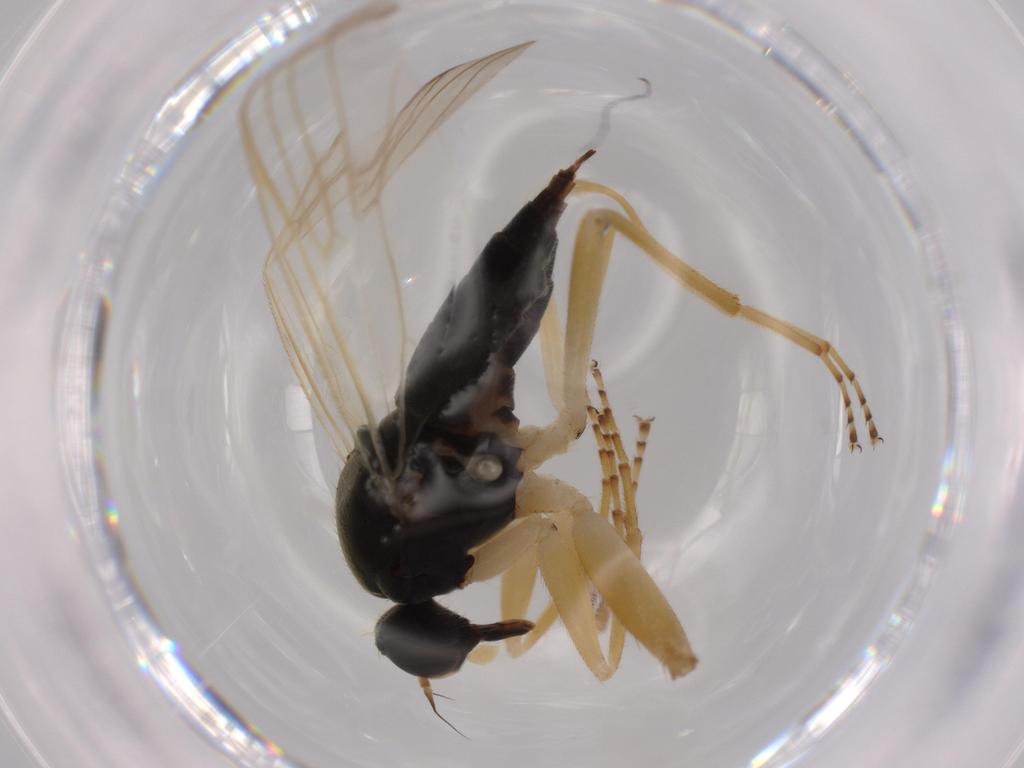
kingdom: Animalia
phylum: Arthropoda
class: Insecta
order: Diptera
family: Hybotidae
